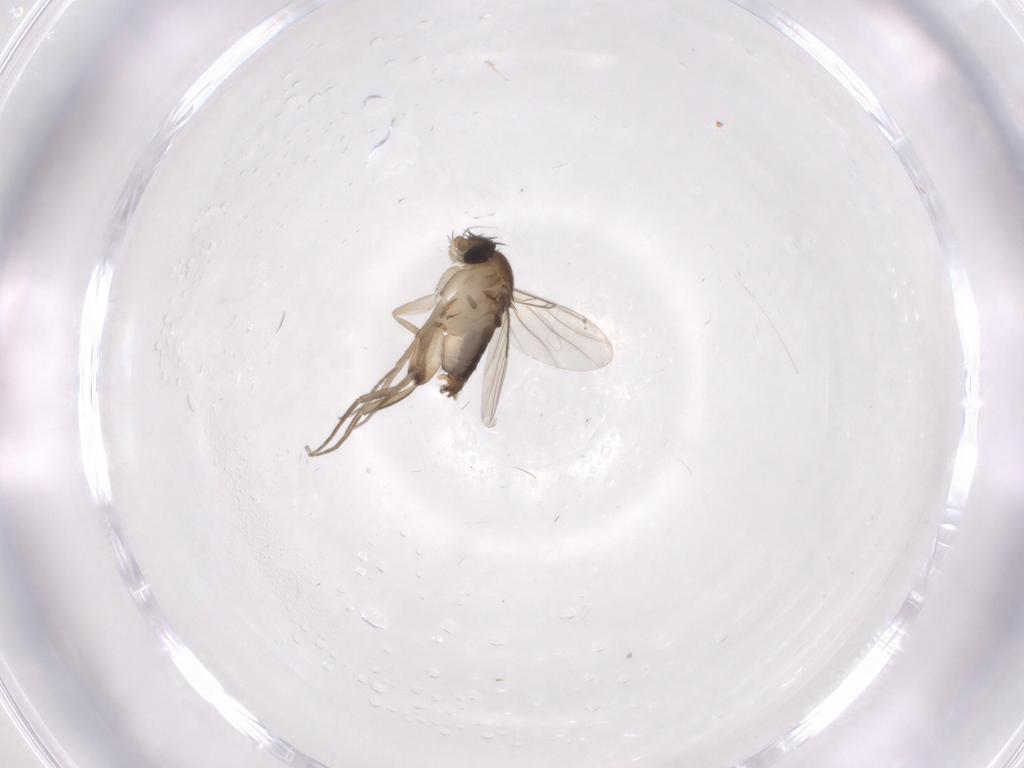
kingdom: Animalia
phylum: Arthropoda
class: Insecta
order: Diptera
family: Phoridae
